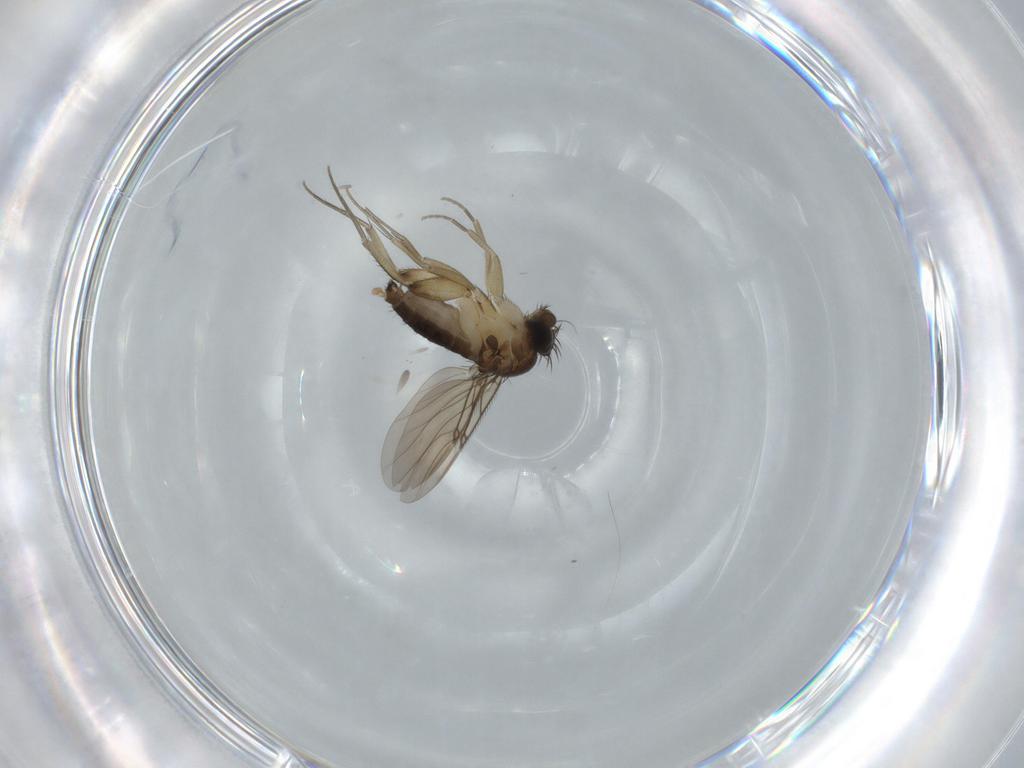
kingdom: Animalia
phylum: Arthropoda
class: Insecta
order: Diptera
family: Phoridae
